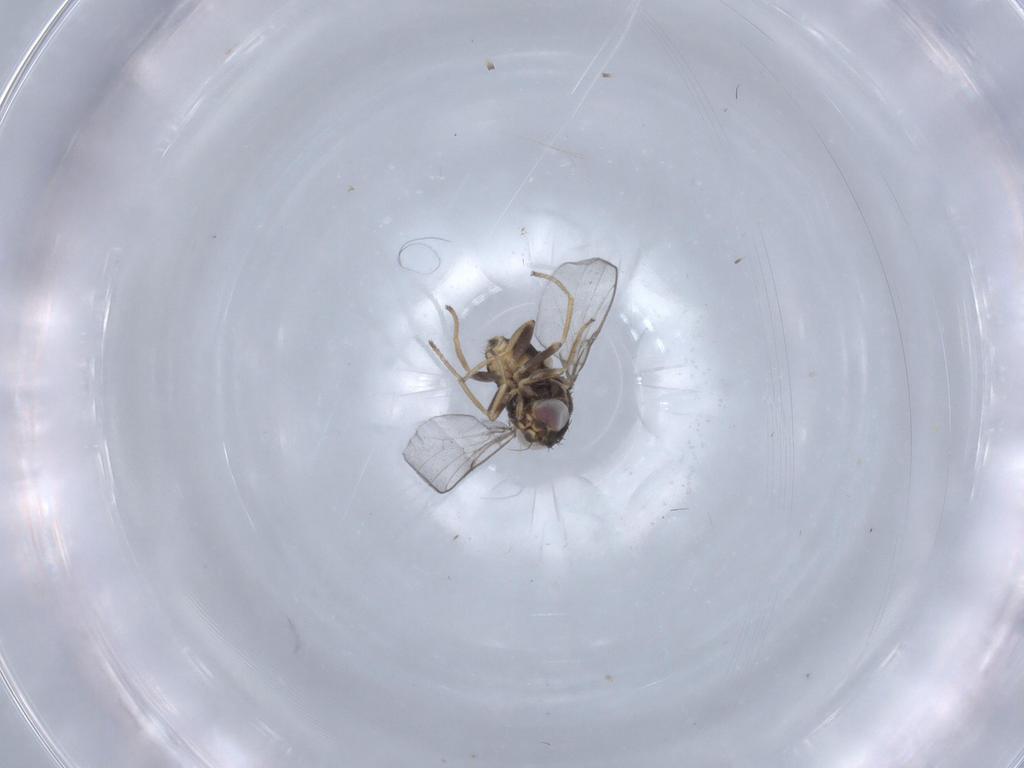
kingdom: Animalia
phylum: Arthropoda
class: Insecta
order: Diptera
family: Chloropidae
